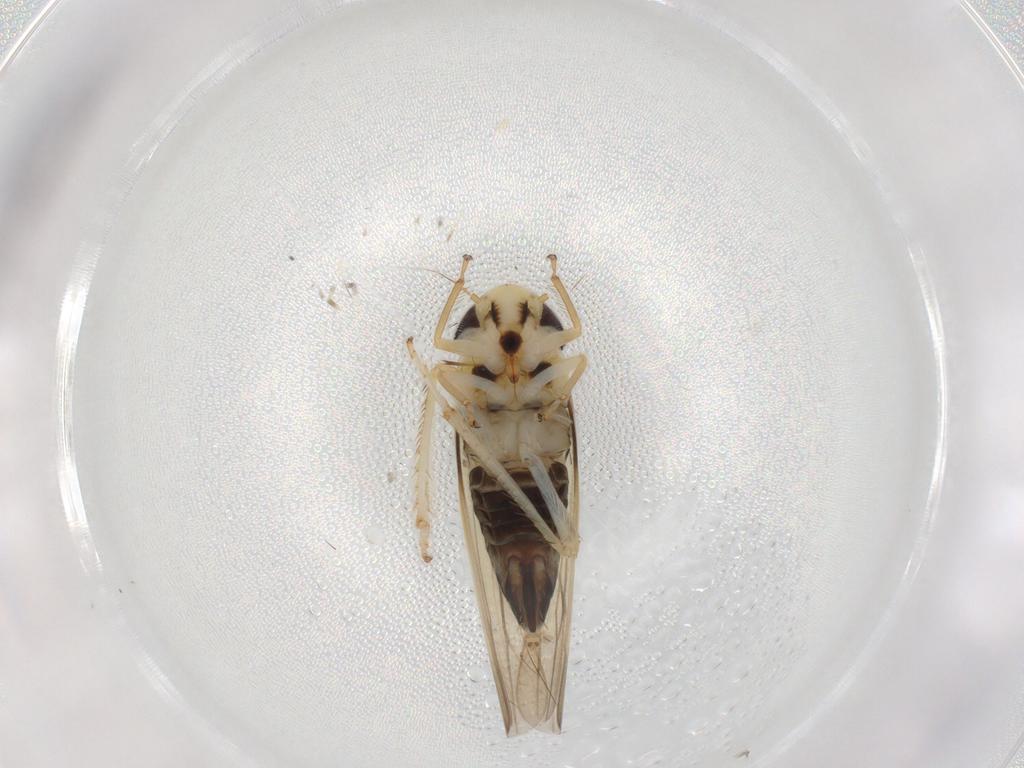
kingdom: Animalia
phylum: Arthropoda
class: Insecta
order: Hemiptera
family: Cicadellidae
